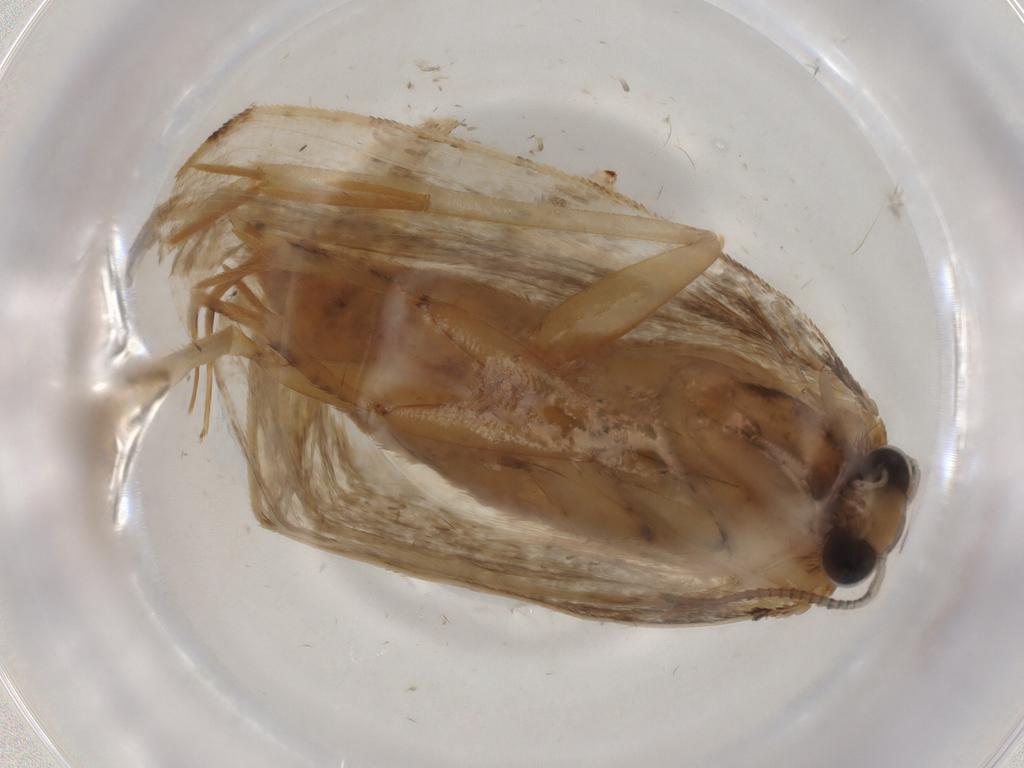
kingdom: Animalia
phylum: Arthropoda
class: Insecta
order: Lepidoptera
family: Tineidae
